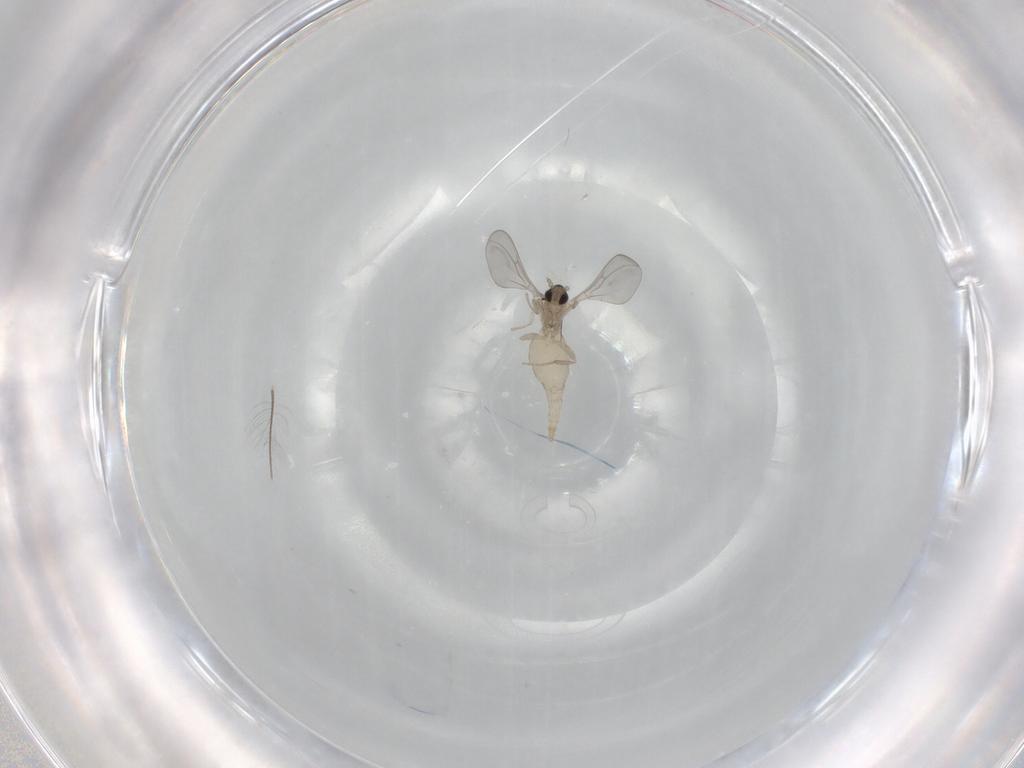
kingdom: Animalia
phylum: Arthropoda
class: Insecta
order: Diptera
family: Cecidomyiidae
